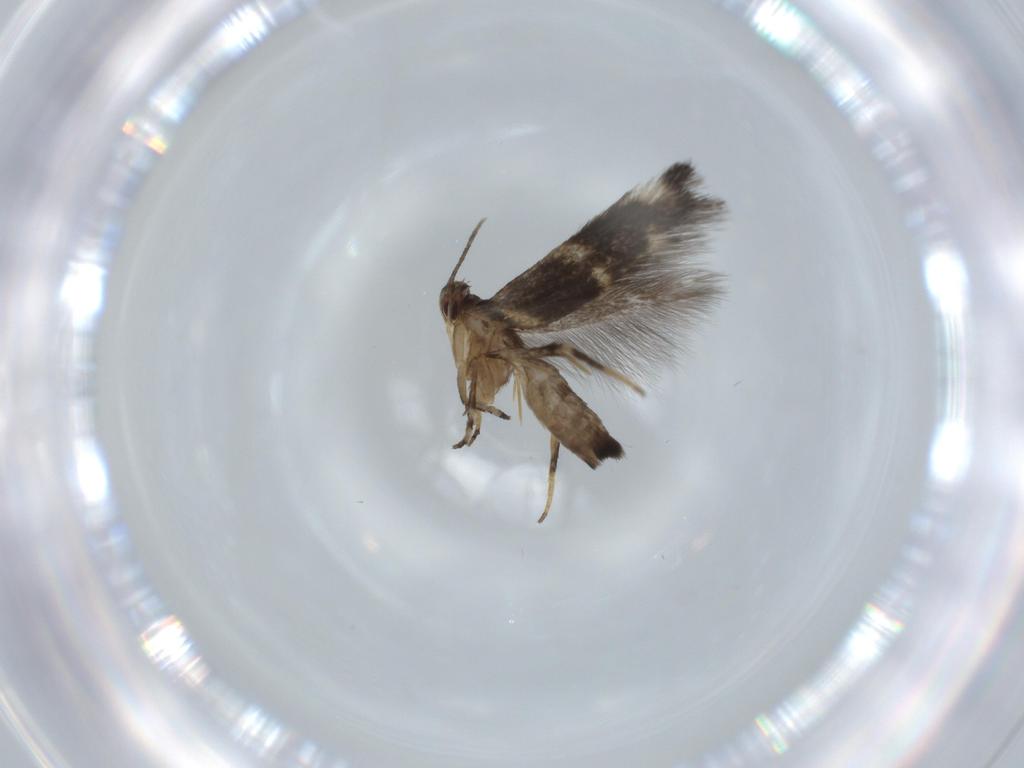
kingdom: Animalia
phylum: Arthropoda
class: Insecta
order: Lepidoptera
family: Cosmopterigidae
